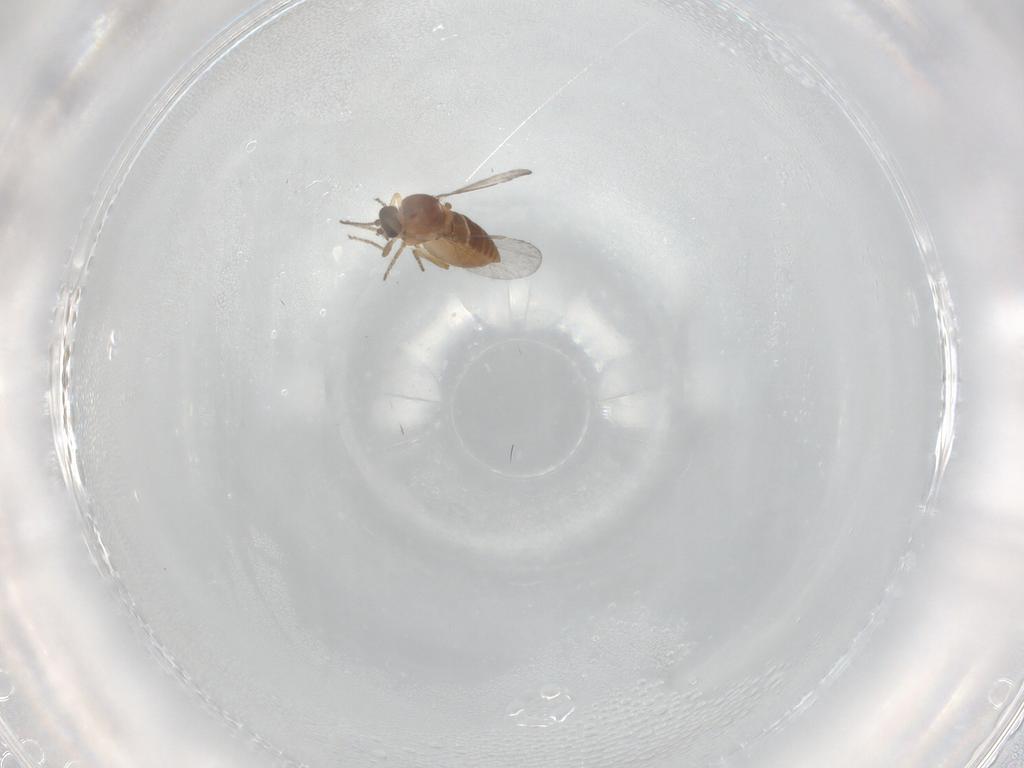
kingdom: Animalia
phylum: Arthropoda
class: Insecta
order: Diptera
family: Ceratopogonidae
